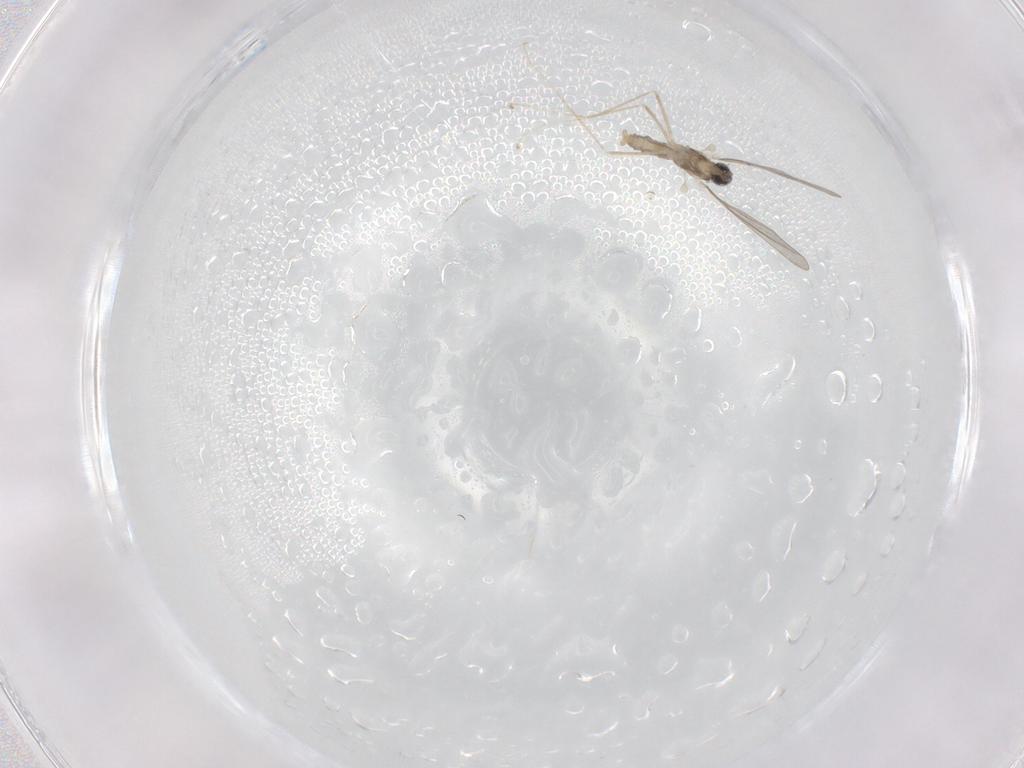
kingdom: Animalia
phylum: Arthropoda
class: Insecta
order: Diptera
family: Cecidomyiidae
